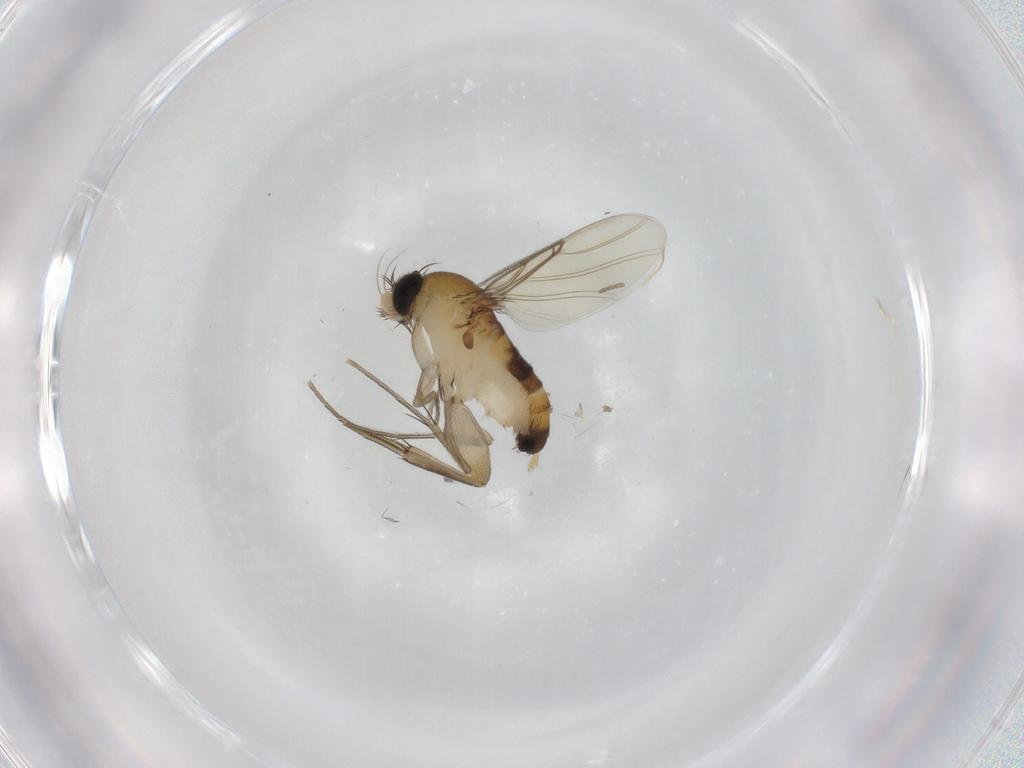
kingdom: Animalia
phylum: Arthropoda
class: Insecta
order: Diptera
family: Phoridae
